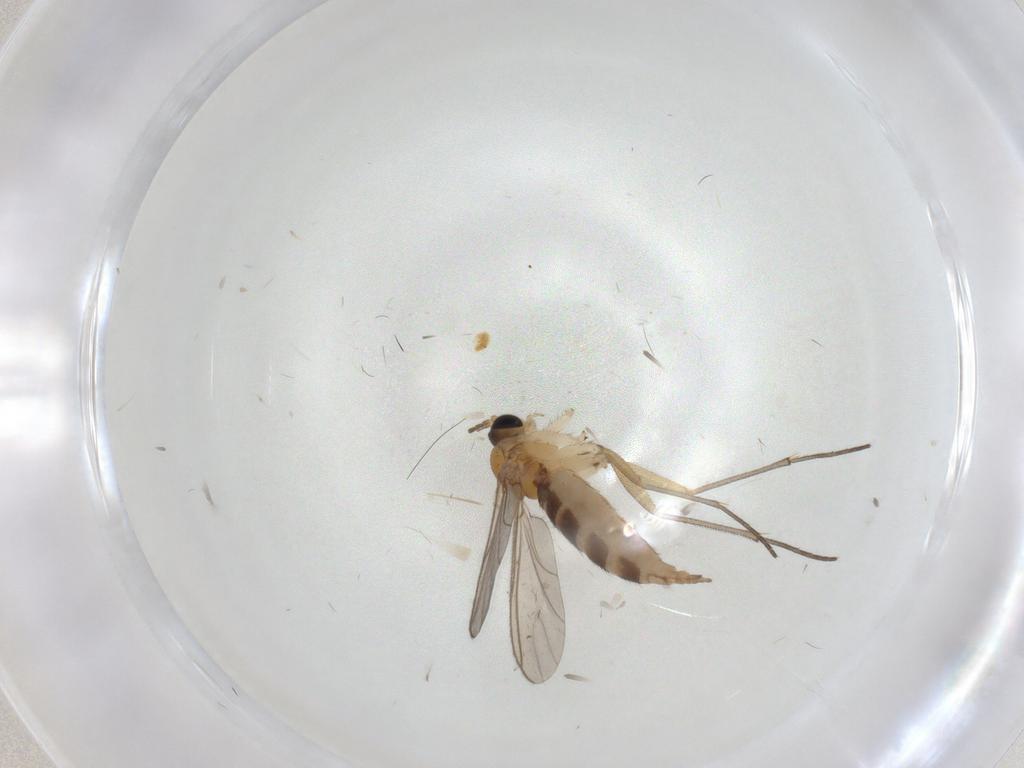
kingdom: Animalia
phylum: Arthropoda
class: Insecta
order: Diptera
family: Sciaridae
